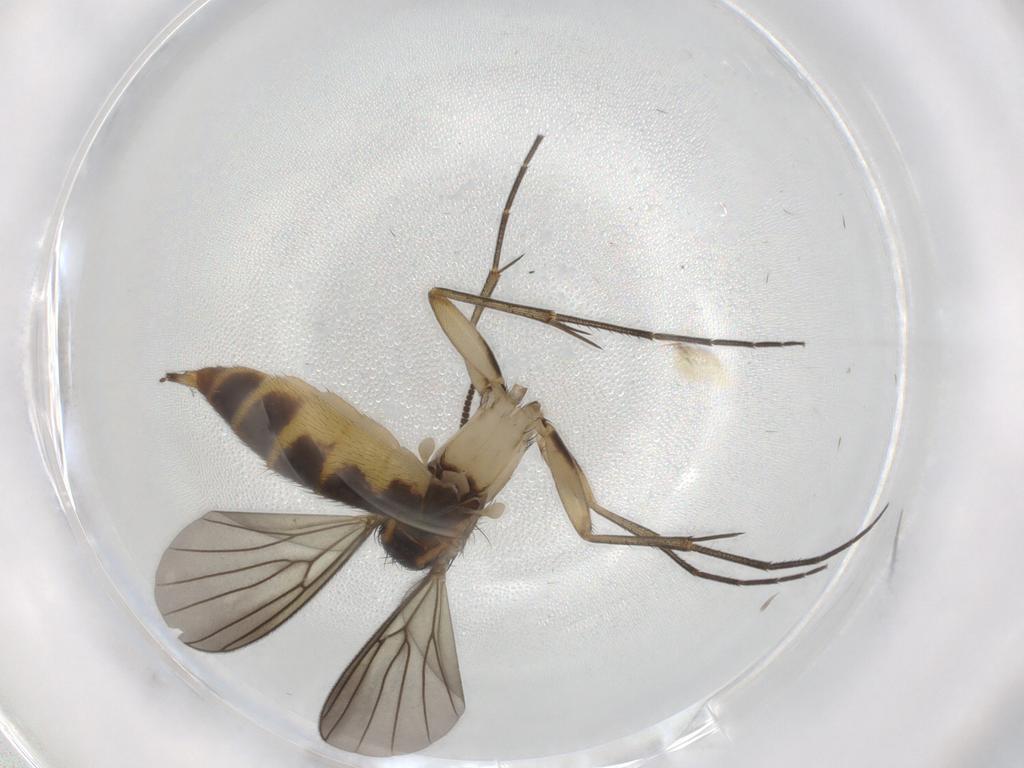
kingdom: Animalia
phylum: Arthropoda
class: Insecta
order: Diptera
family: Mycetophilidae
